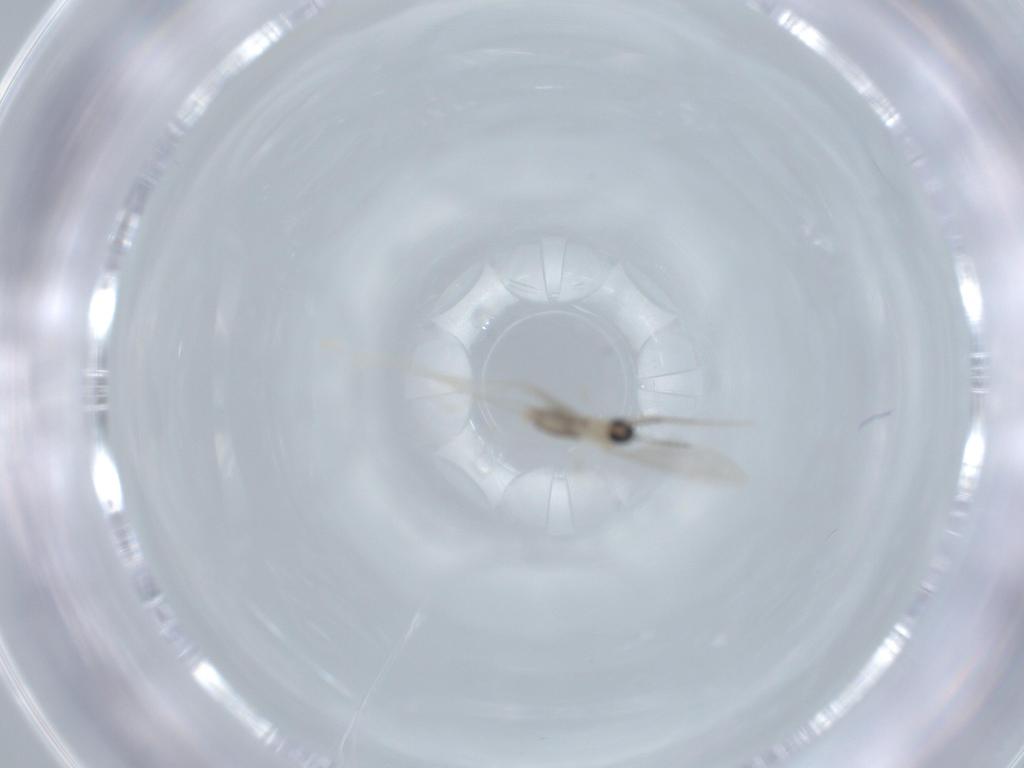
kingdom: Animalia
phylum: Arthropoda
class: Insecta
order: Diptera
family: Cecidomyiidae
